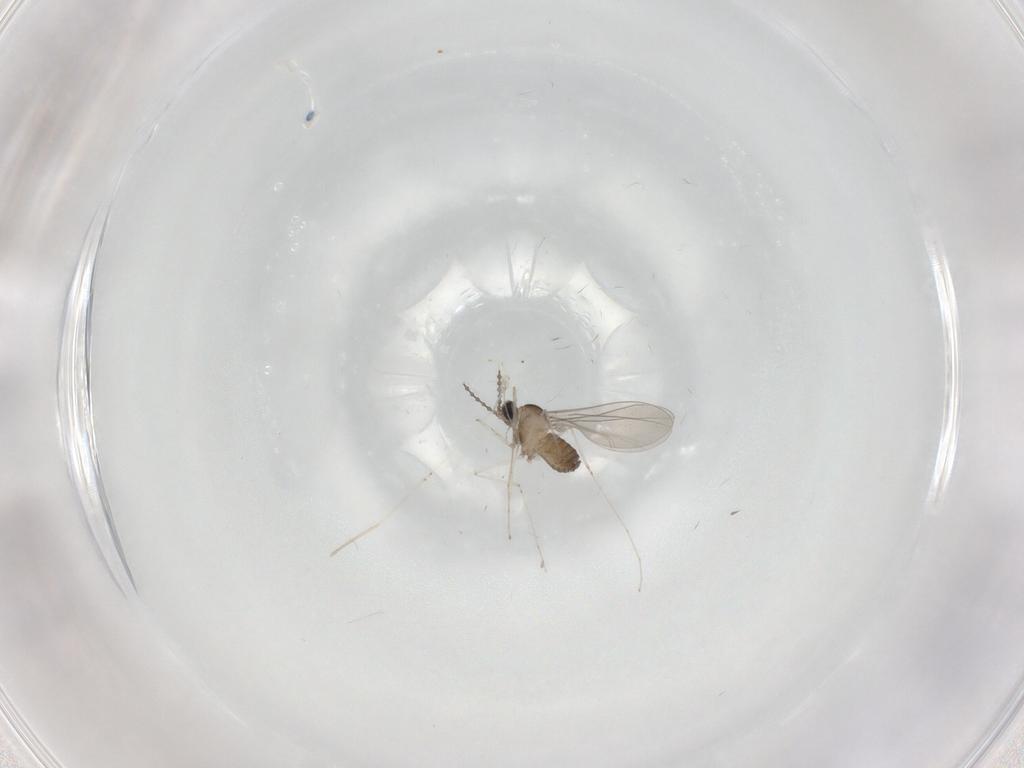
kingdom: Animalia
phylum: Arthropoda
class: Insecta
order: Diptera
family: Cecidomyiidae
